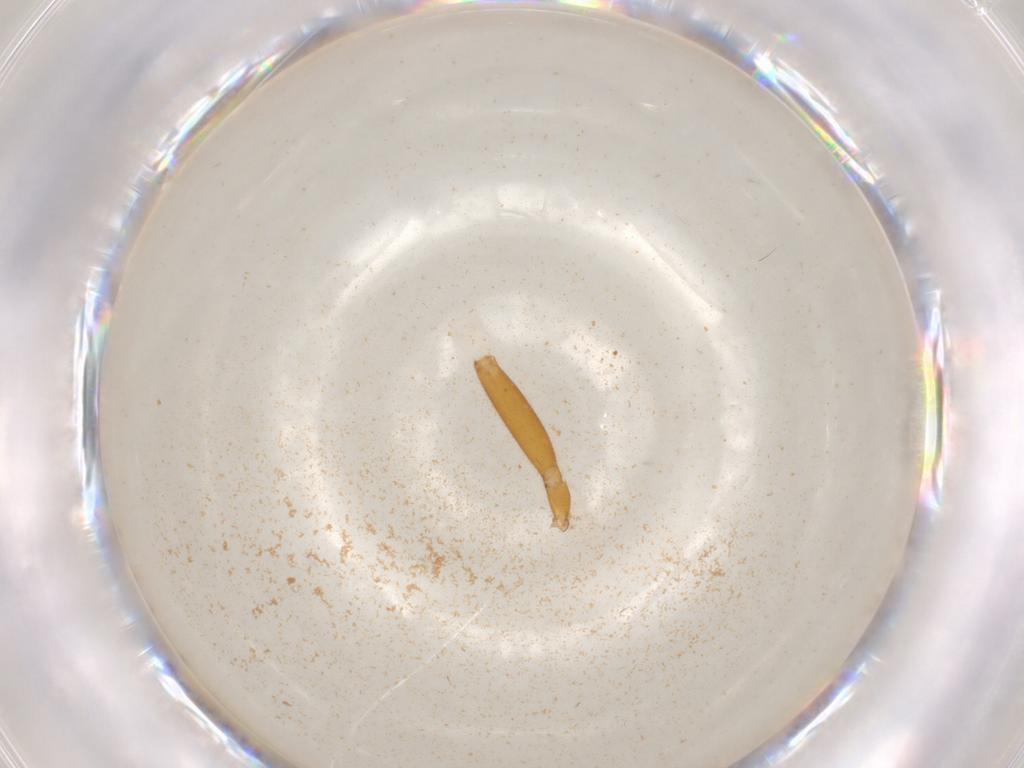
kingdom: Animalia
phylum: Arthropoda
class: Insecta
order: Hymenoptera
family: Ichneumonidae
